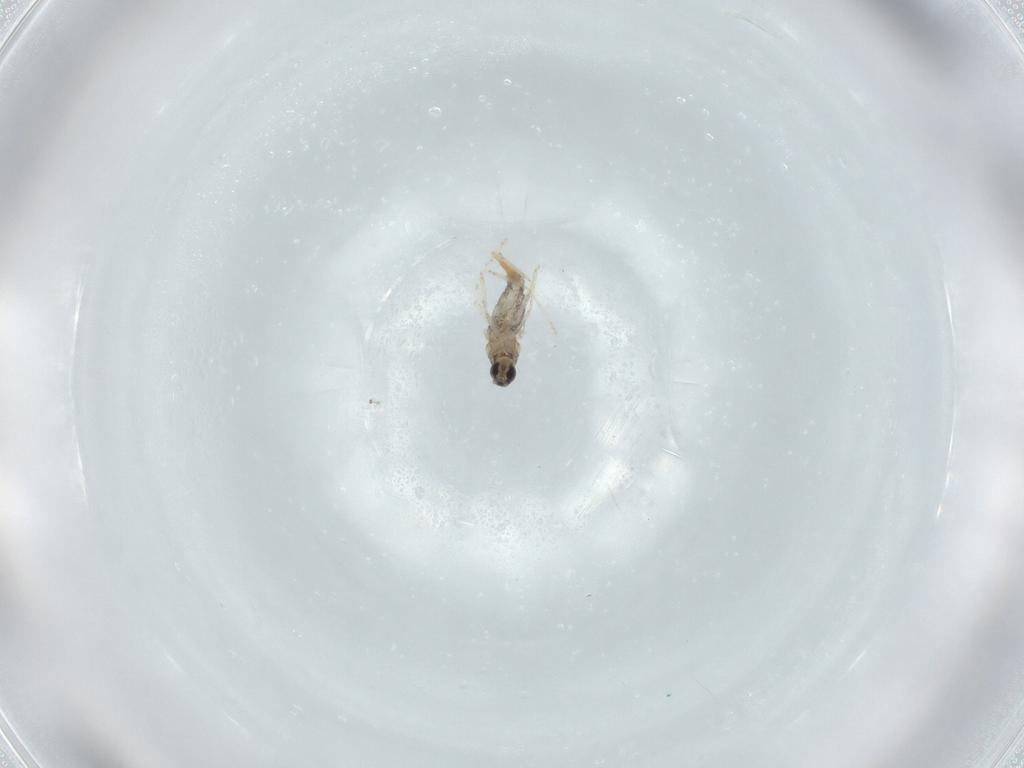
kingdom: Animalia
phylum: Arthropoda
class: Insecta
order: Diptera
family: Cecidomyiidae
